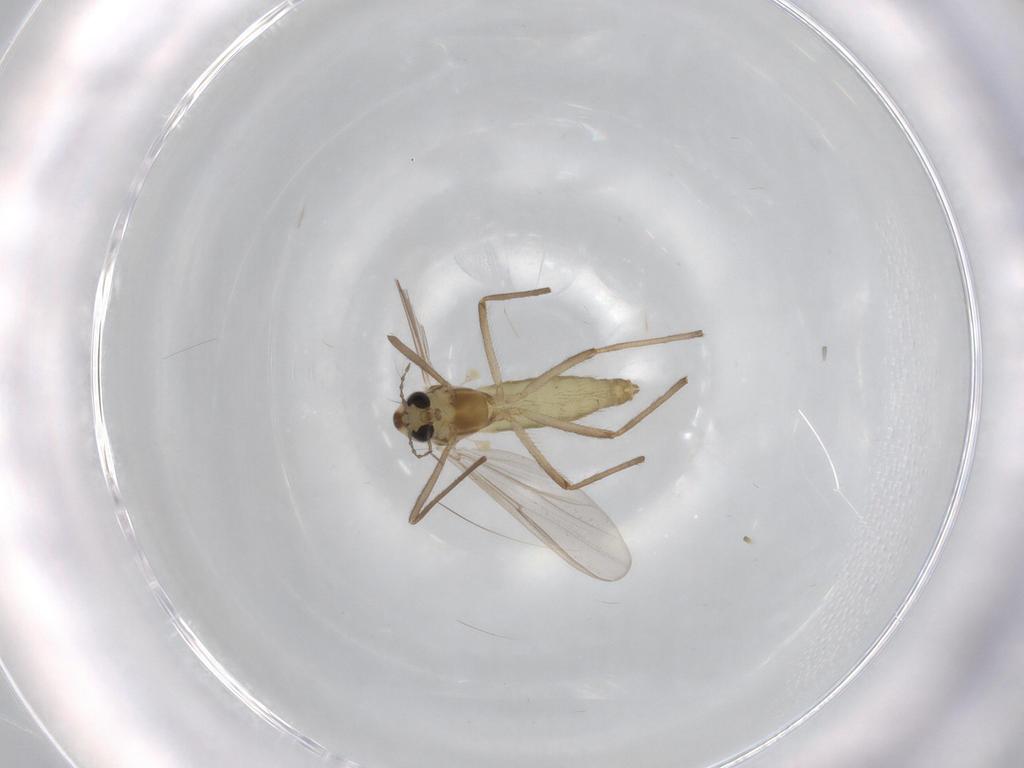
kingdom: Animalia
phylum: Arthropoda
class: Insecta
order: Diptera
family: Chironomidae
